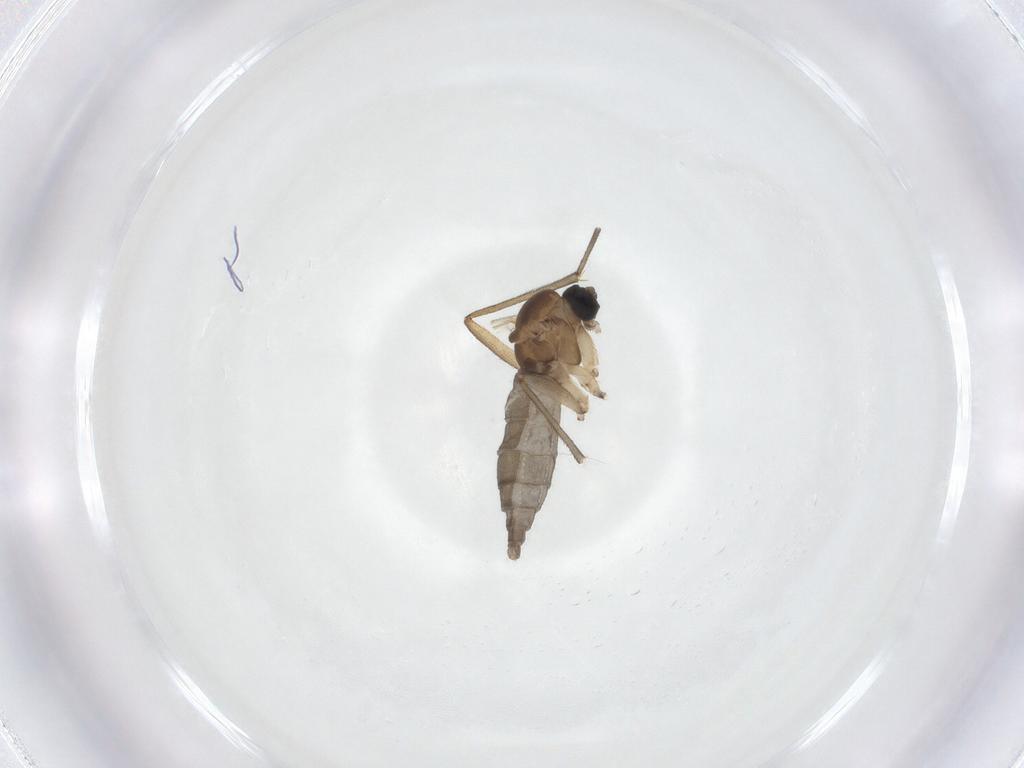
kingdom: Animalia
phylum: Arthropoda
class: Insecta
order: Diptera
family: Sciaridae
